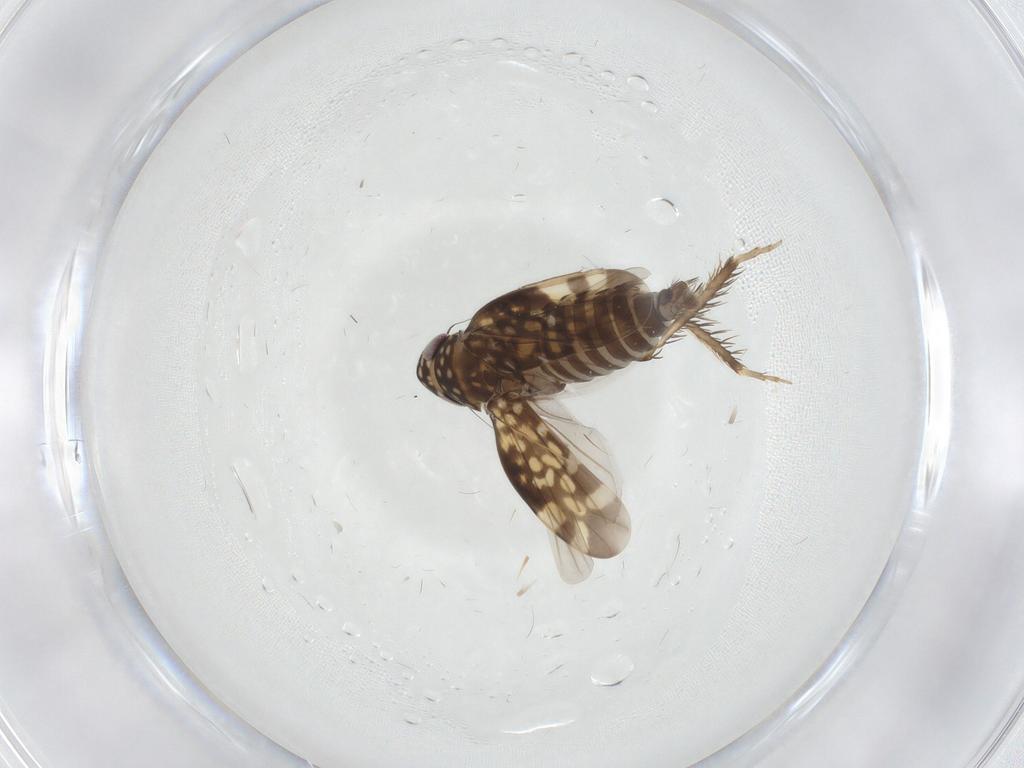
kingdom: Animalia
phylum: Arthropoda
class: Insecta
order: Hemiptera
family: Cicadellidae
